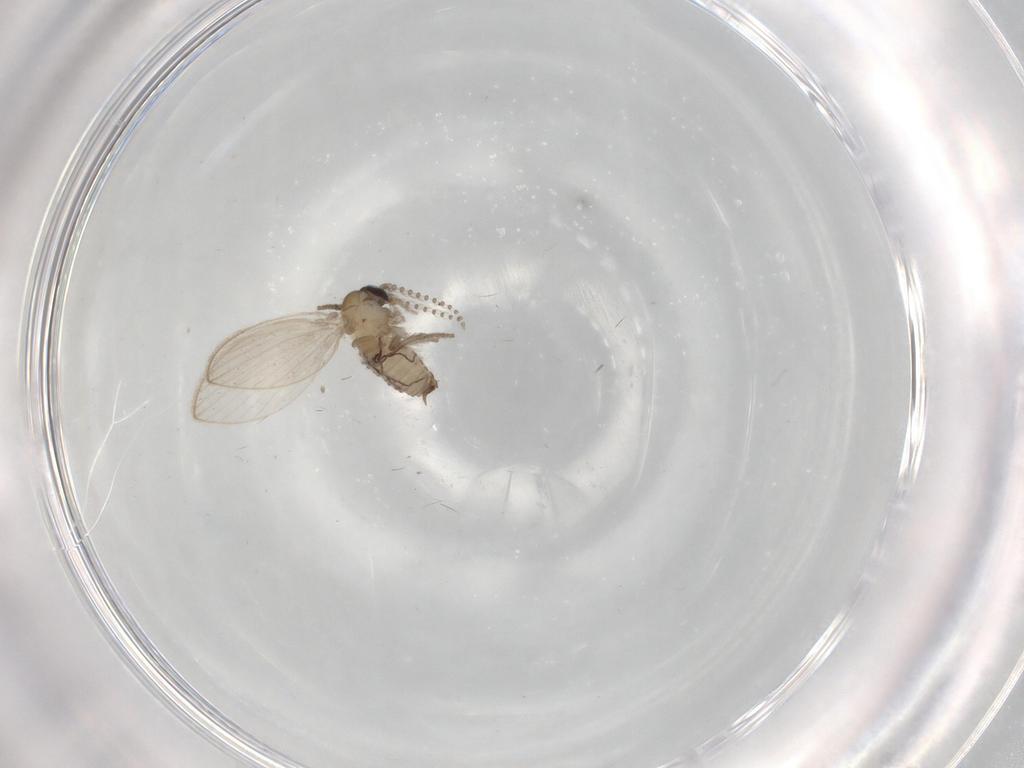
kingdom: Animalia
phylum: Arthropoda
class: Insecta
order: Diptera
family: Psychodidae
